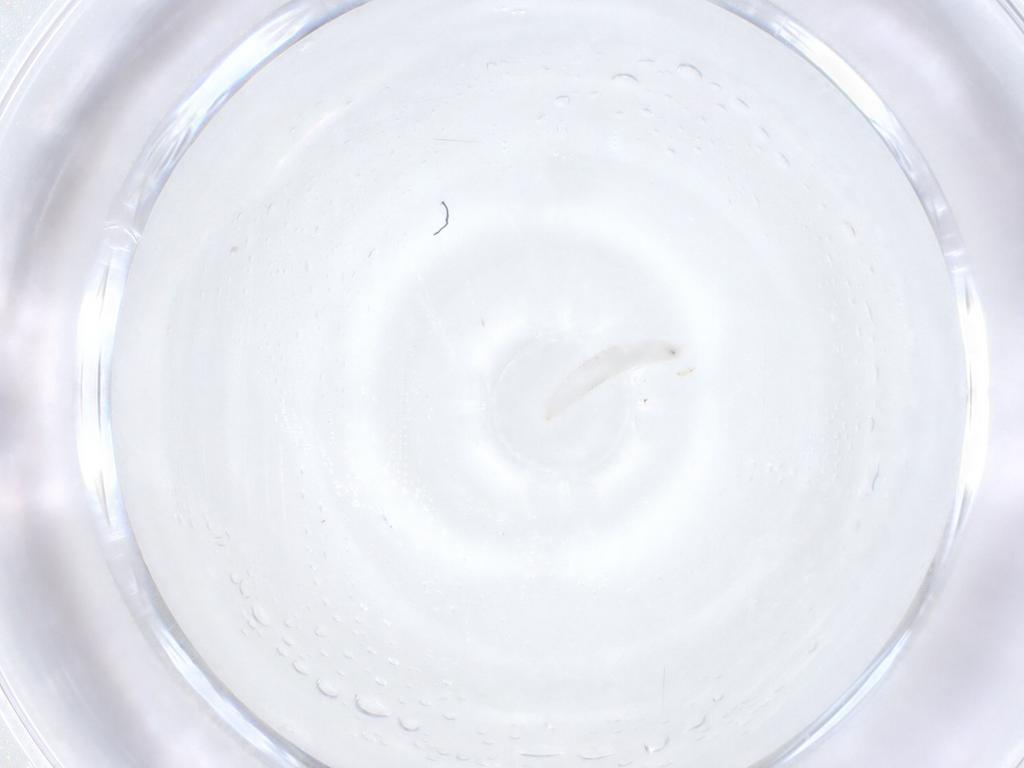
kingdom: Animalia
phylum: Arthropoda
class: Insecta
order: Diptera
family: Tachinidae
